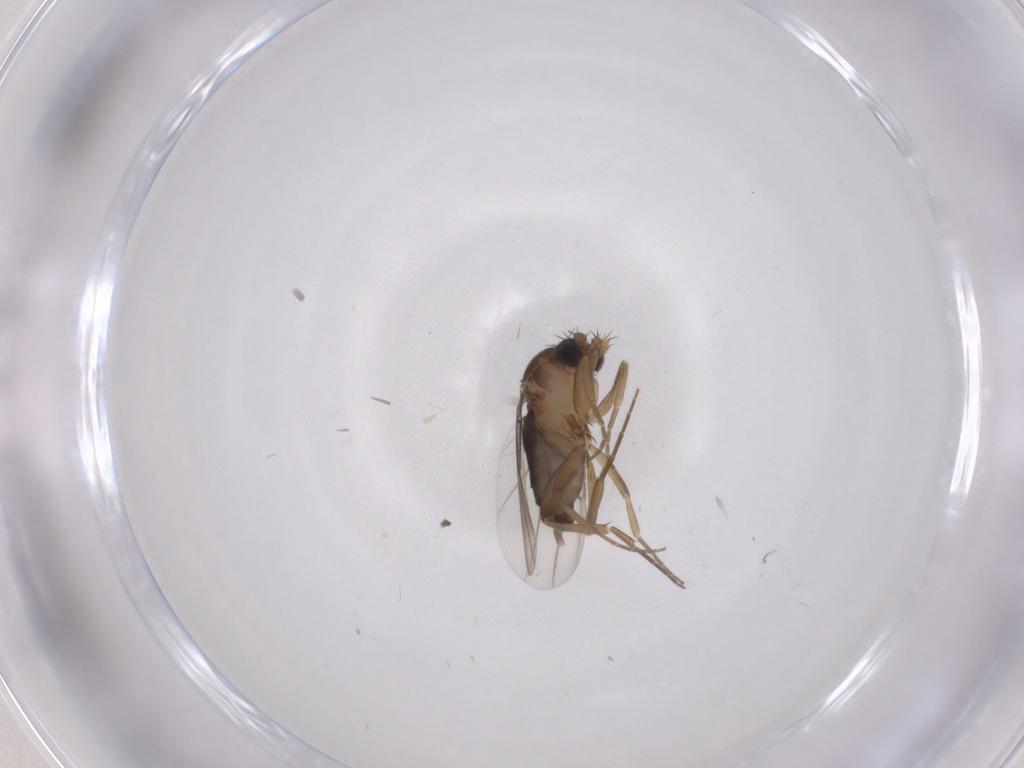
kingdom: Animalia
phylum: Arthropoda
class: Insecta
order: Diptera
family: Phoridae
